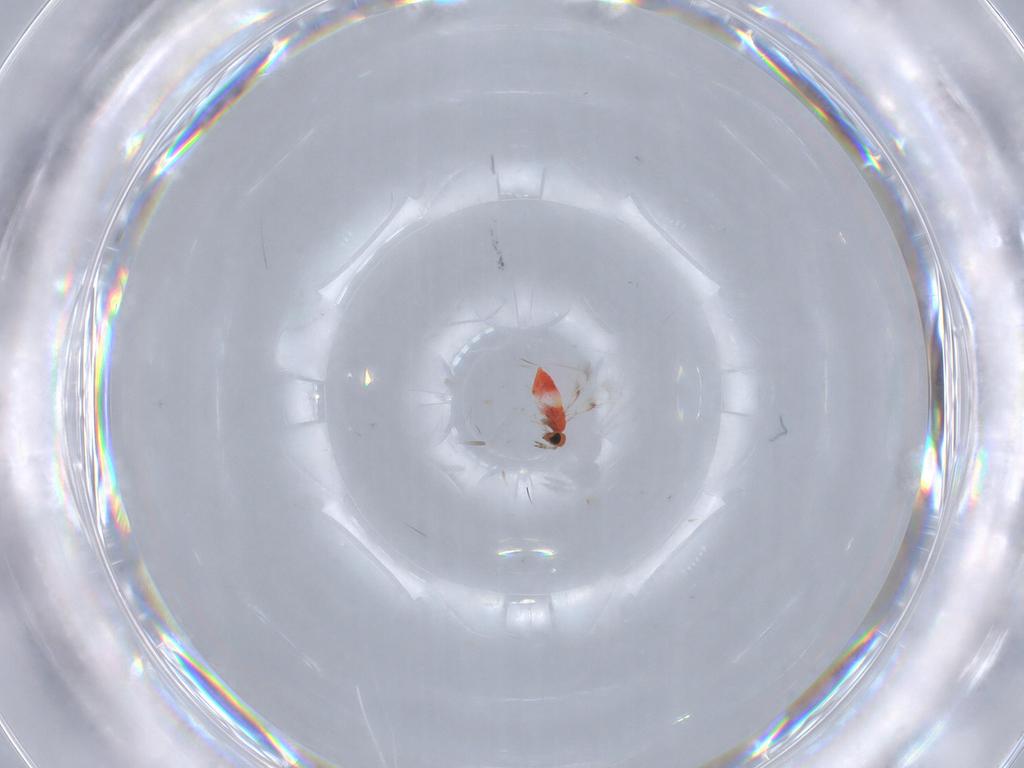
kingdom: Animalia
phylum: Arthropoda
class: Insecta
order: Hymenoptera
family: Trichogrammatidae
